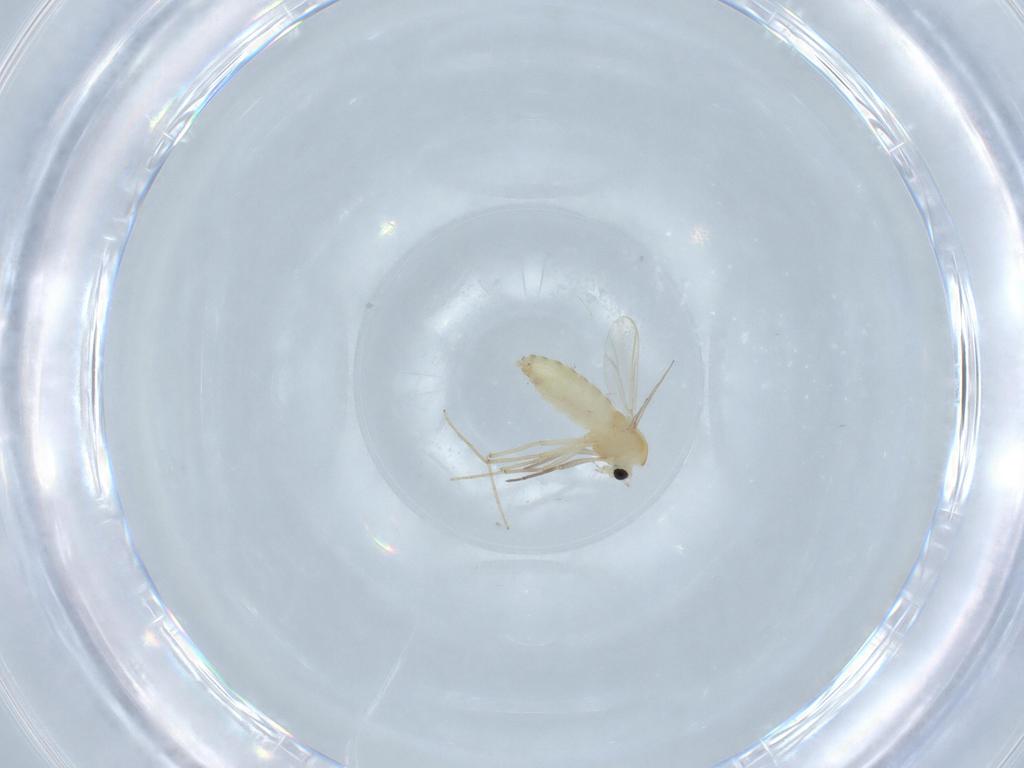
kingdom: Animalia
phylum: Arthropoda
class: Insecta
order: Diptera
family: Chironomidae
